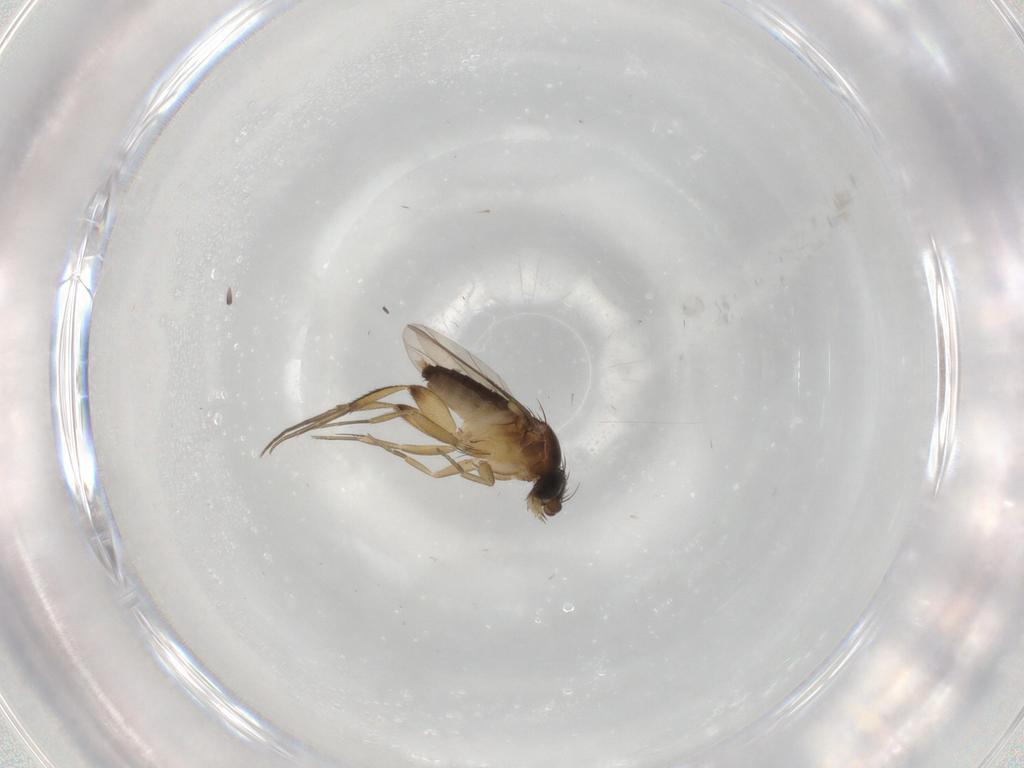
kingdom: Animalia
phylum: Arthropoda
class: Insecta
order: Diptera
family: Phoridae
